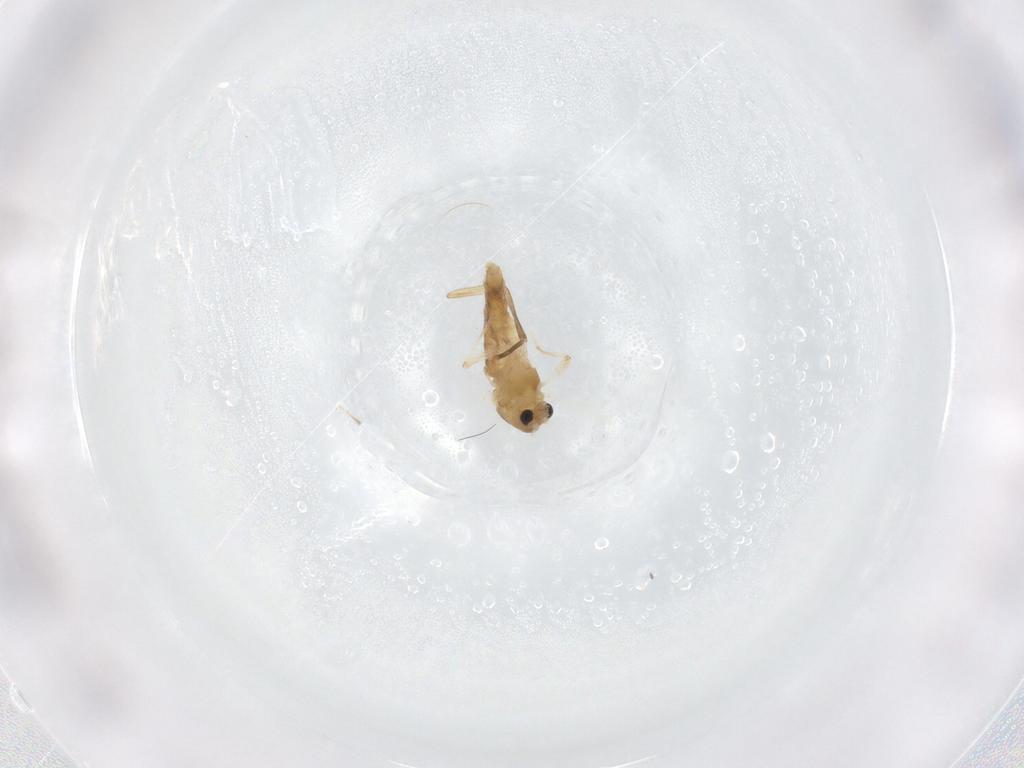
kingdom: Animalia
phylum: Arthropoda
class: Insecta
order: Diptera
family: Chironomidae
